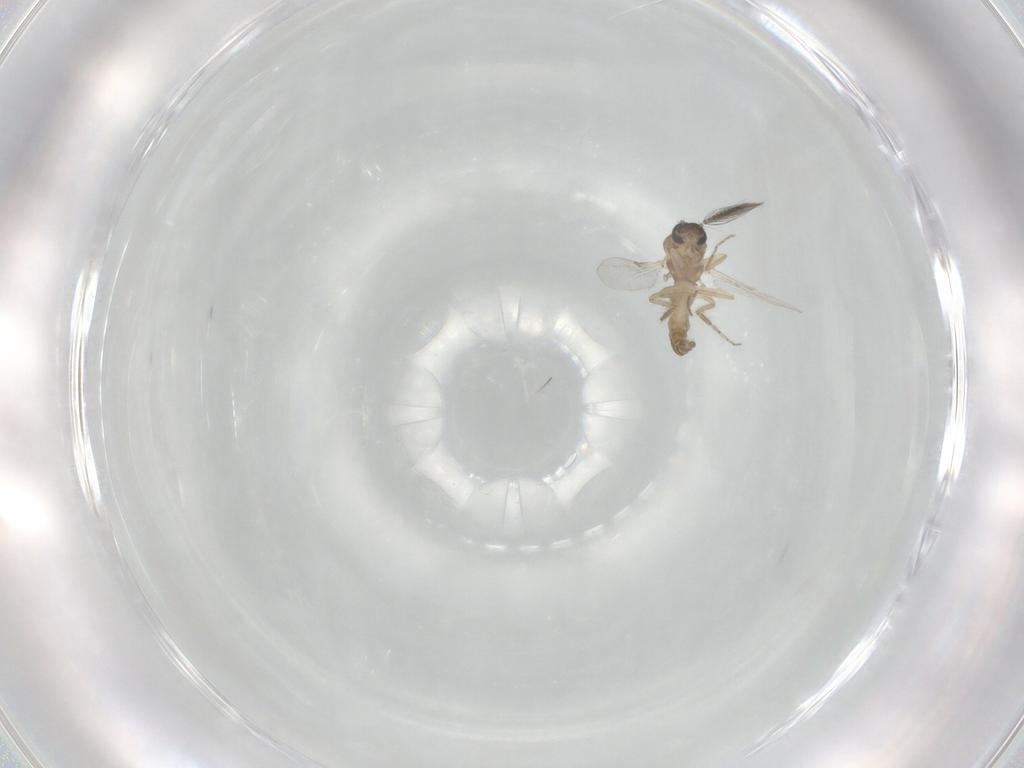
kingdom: Animalia
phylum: Arthropoda
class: Insecta
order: Diptera
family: Ceratopogonidae
